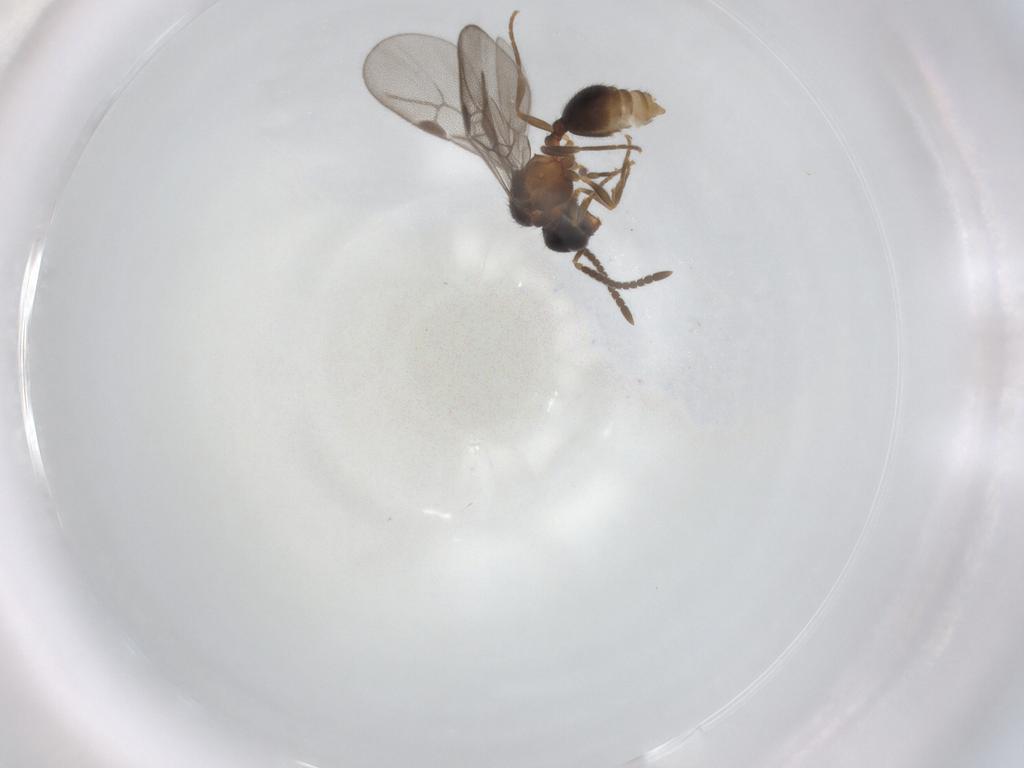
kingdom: Animalia
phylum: Arthropoda
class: Insecta
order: Hymenoptera
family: Formicidae
